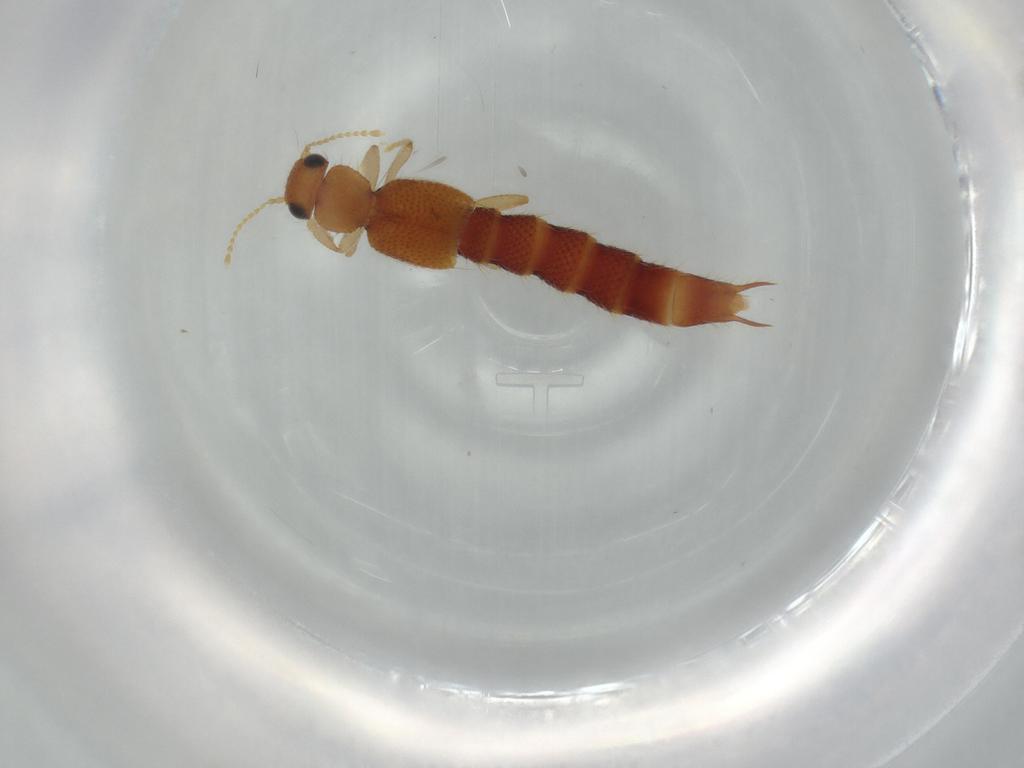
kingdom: Animalia
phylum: Arthropoda
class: Insecta
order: Coleoptera
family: Staphylinidae
